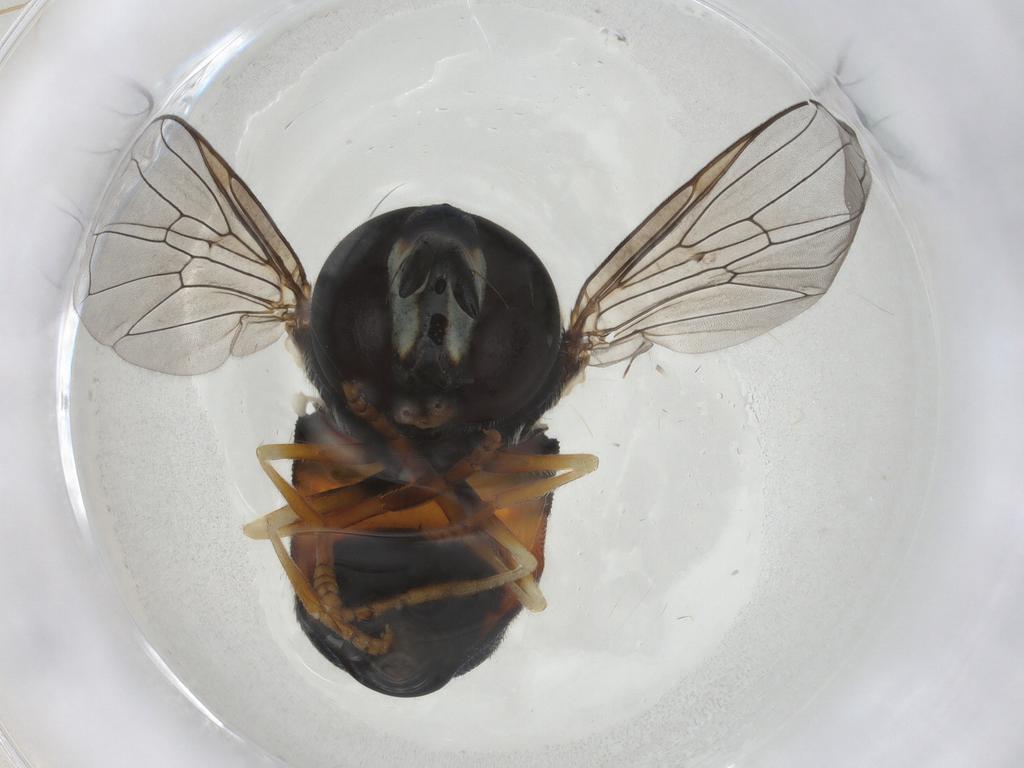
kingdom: Animalia
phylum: Arthropoda
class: Insecta
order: Diptera
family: Syrphidae
